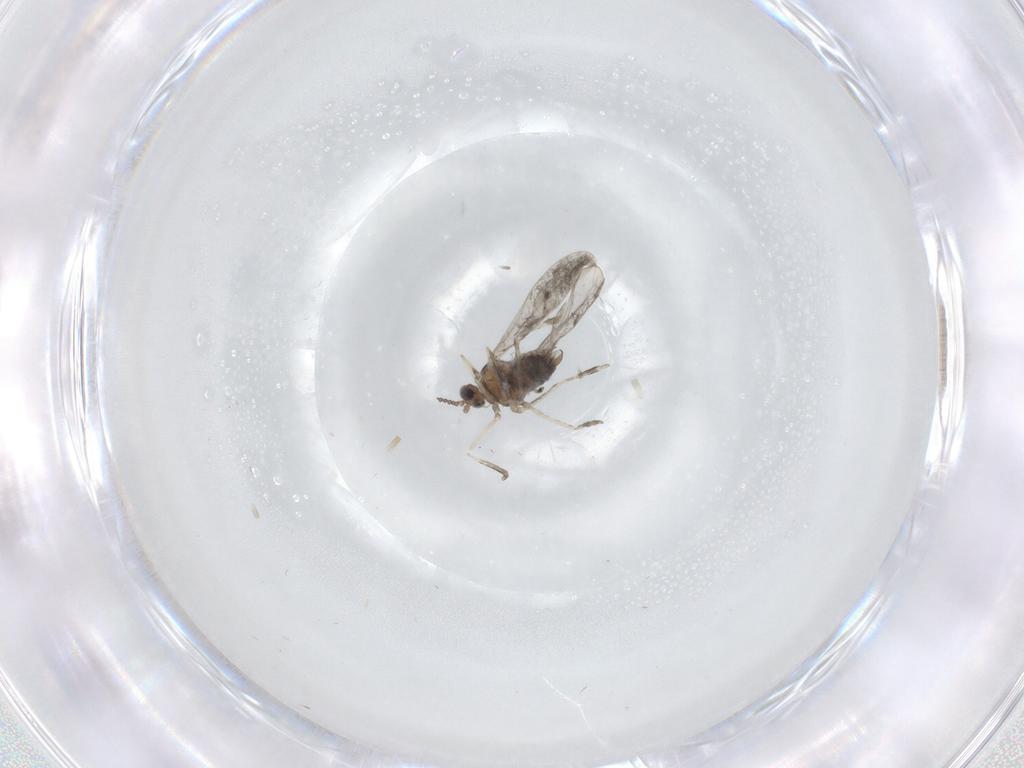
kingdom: Animalia
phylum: Arthropoda
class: Insecta
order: Diptera
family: Cecidomyiidae
